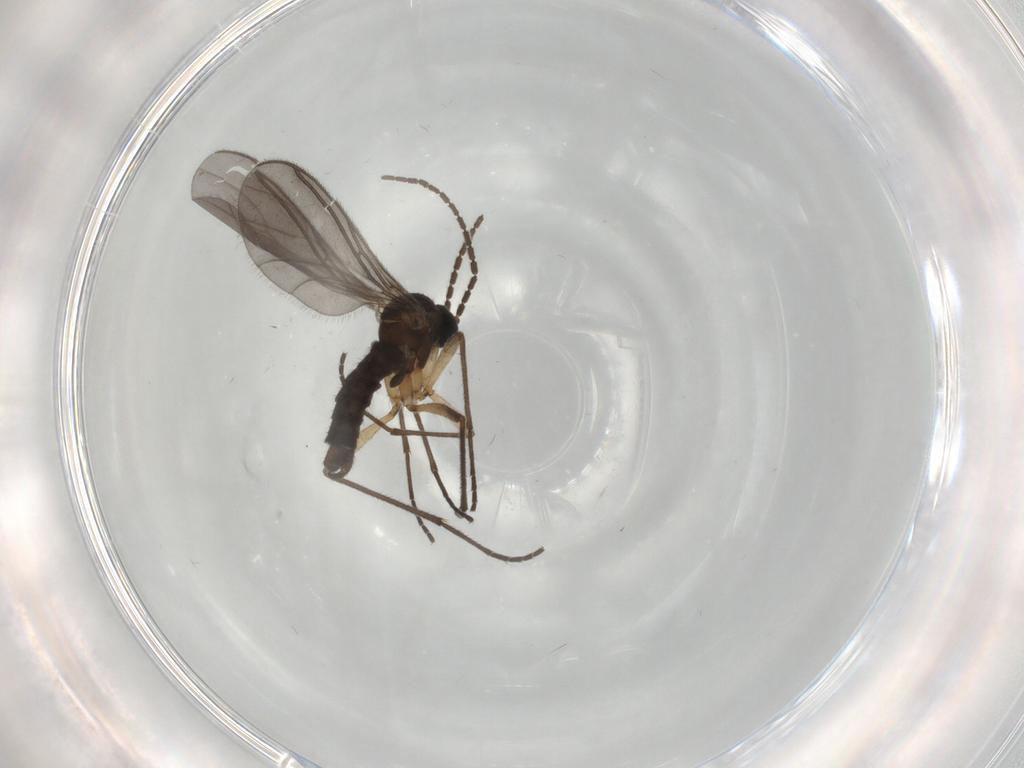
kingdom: Animalia
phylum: Arthropoda
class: Insecta
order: Diptera
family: Sciaridae
